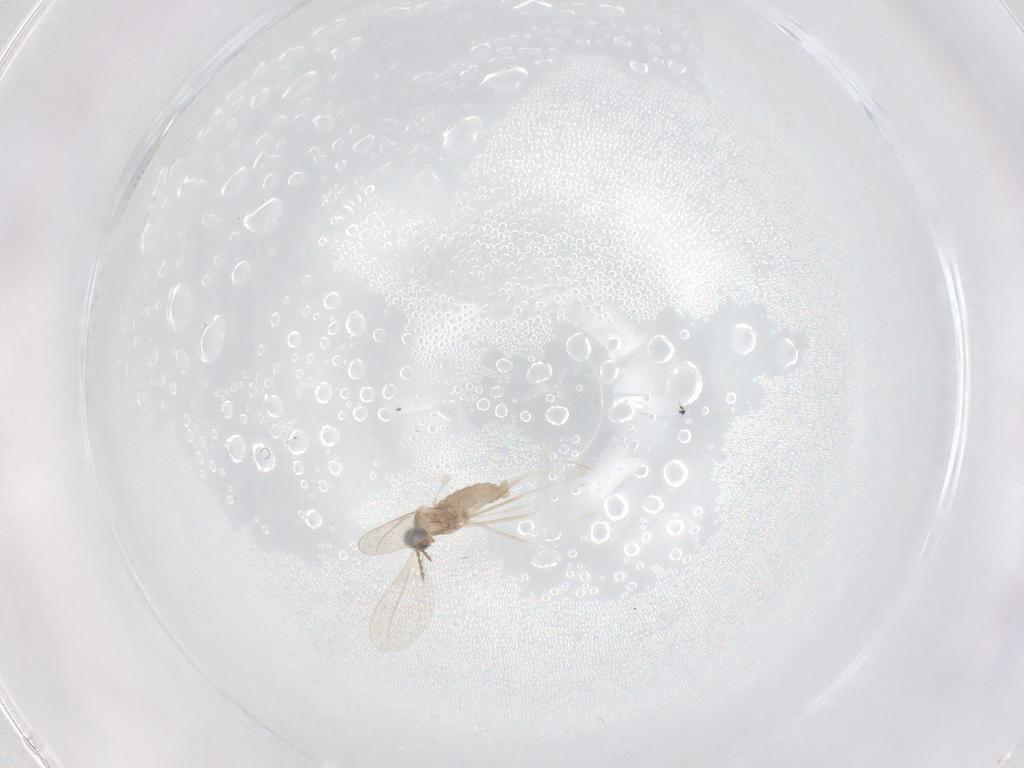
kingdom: Animalia
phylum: Arthropoda
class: Insecta
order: Diptera
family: Cecidomyiidae
